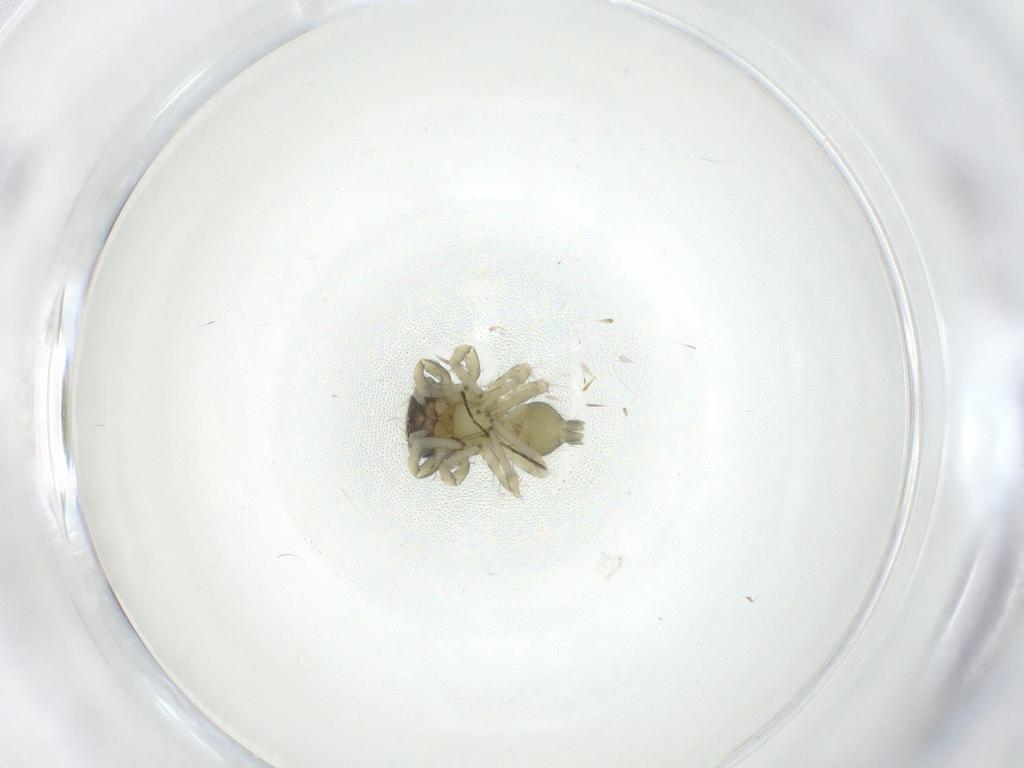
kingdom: Animalia
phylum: Arthropoda
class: Arachnida
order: Araneae
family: Salticidae
